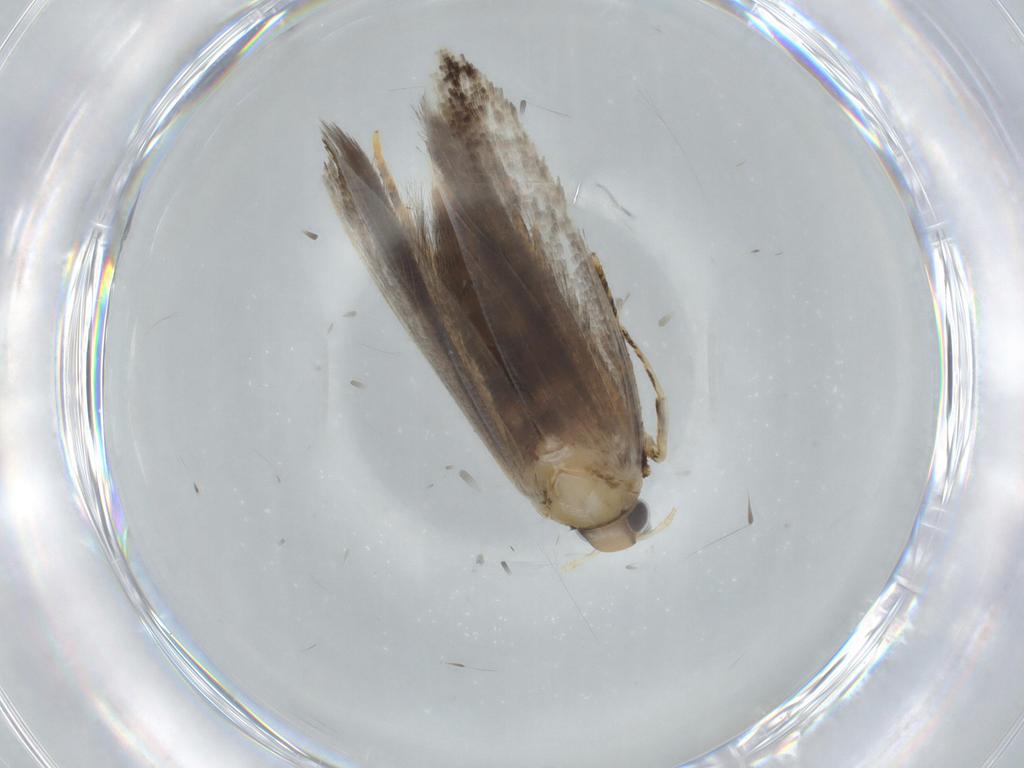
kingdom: Animalia
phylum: Arthropoda
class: Insecta
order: Lepidoptera
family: Gelechiidae
